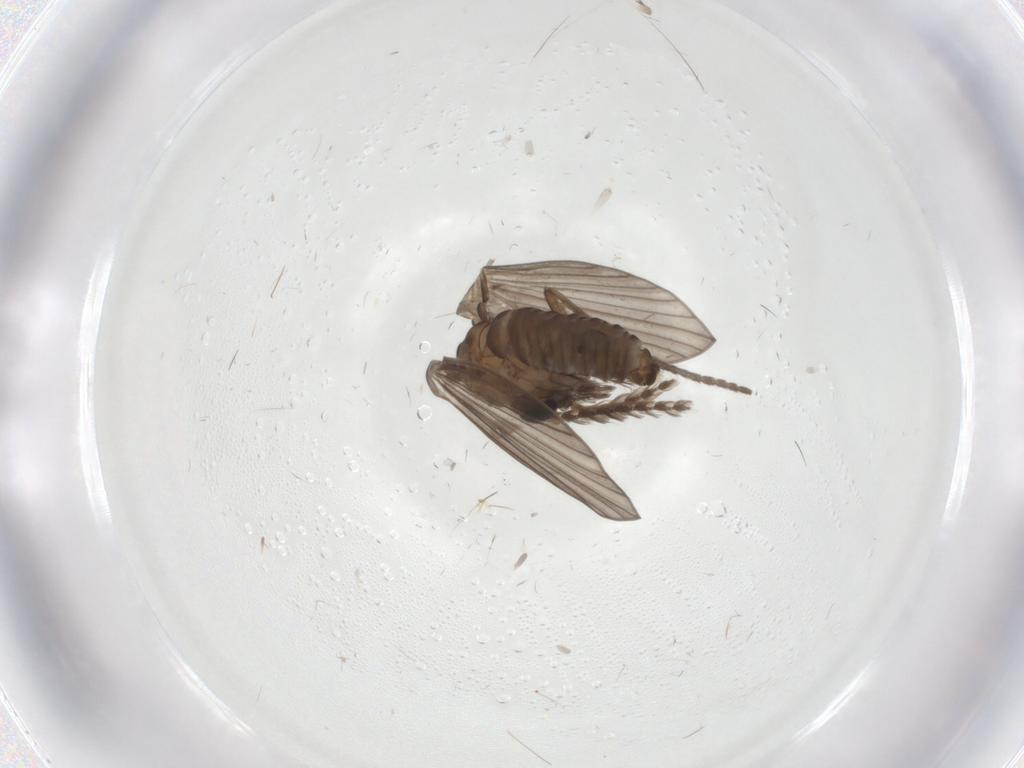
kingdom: Animalia
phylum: Arthropoda
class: Insecta
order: Diptera
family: Psychodidae
